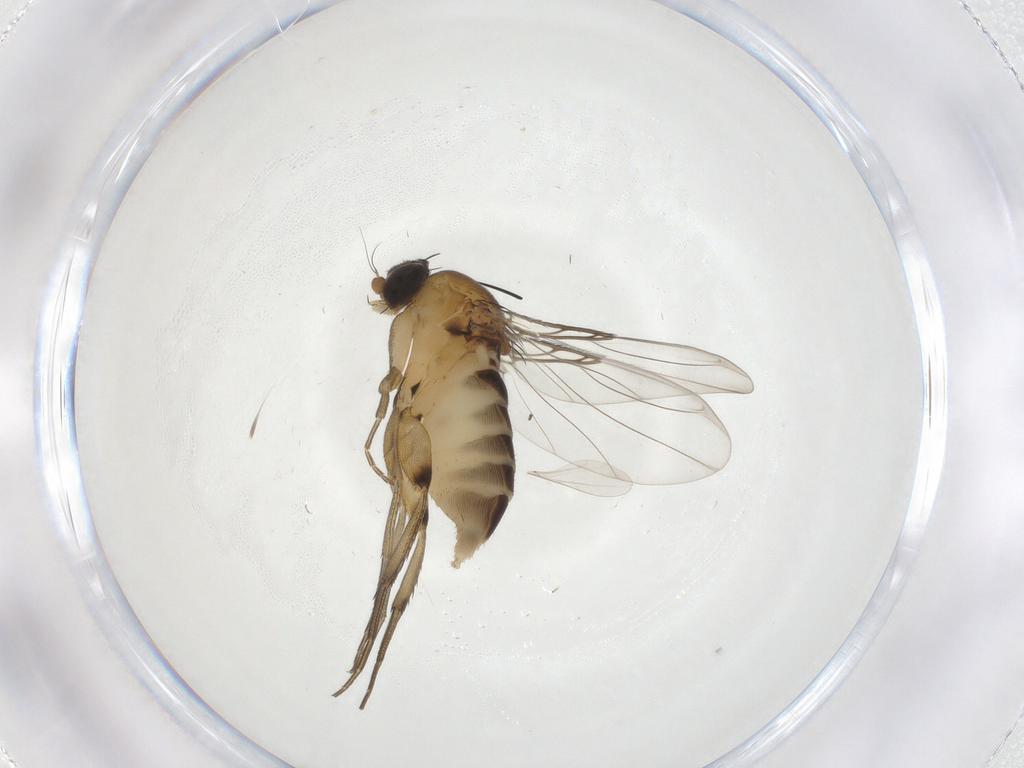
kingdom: Animalia
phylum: Arthropoda
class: Insecta
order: Diptera
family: Phoridae
